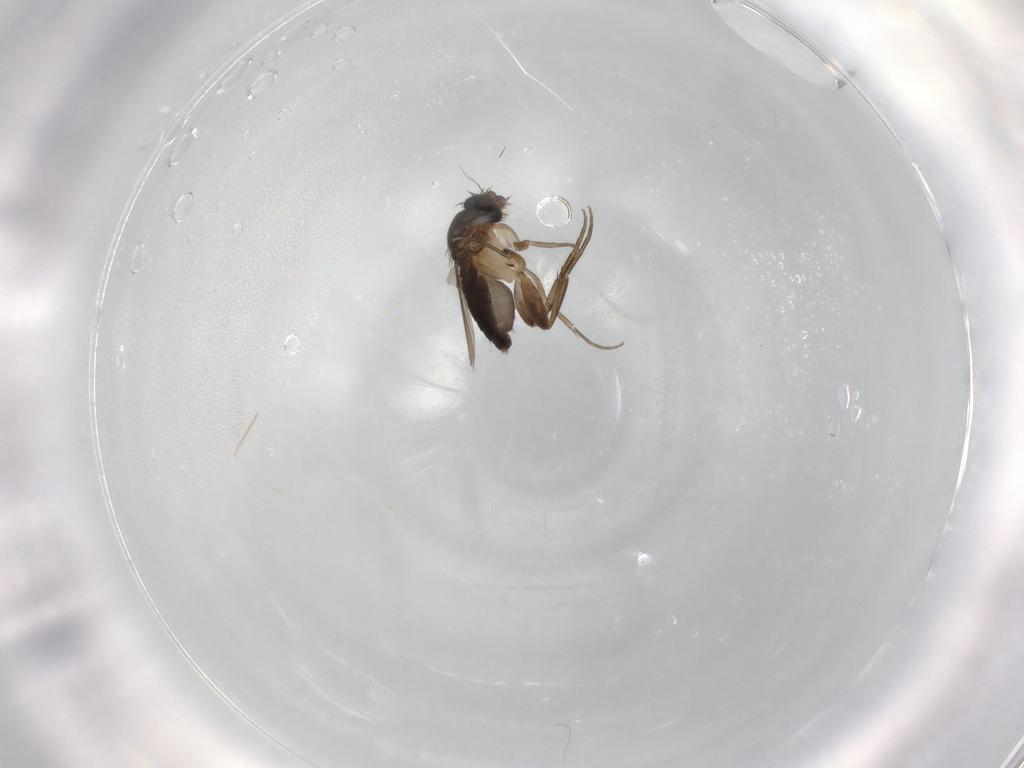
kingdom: Animalia
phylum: Arthropoda
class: Insecta
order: Diptera
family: Phoridae
